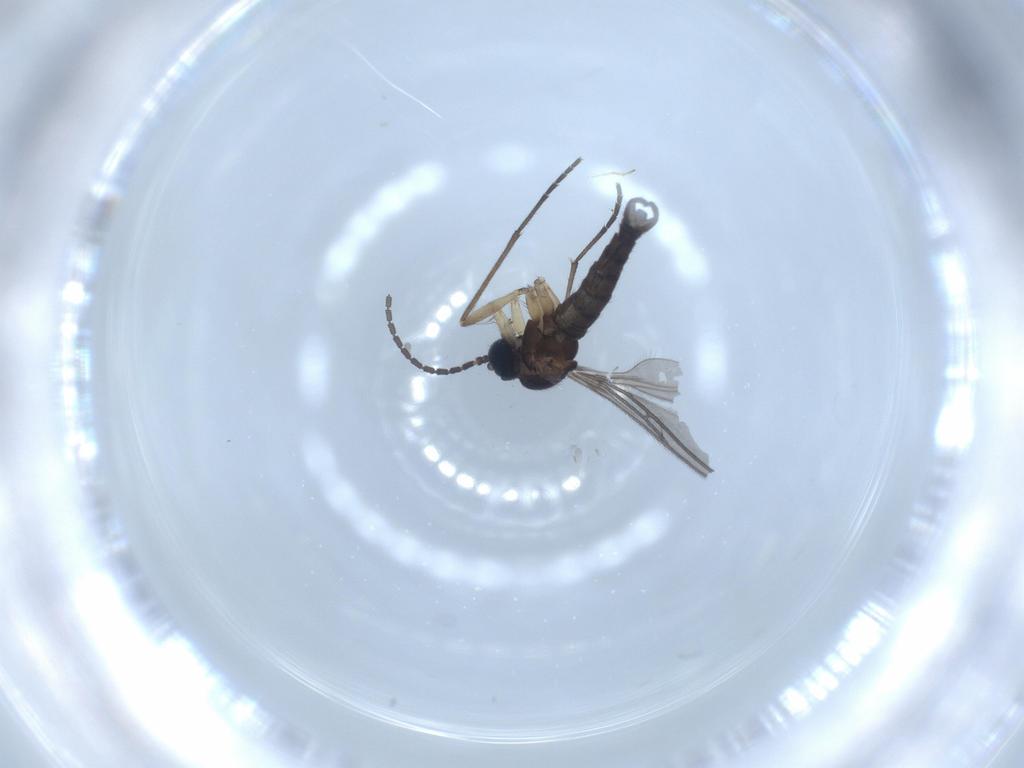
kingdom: Animalia
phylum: Arthropoda
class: Insecta
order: Diptera
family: Sciaridae
